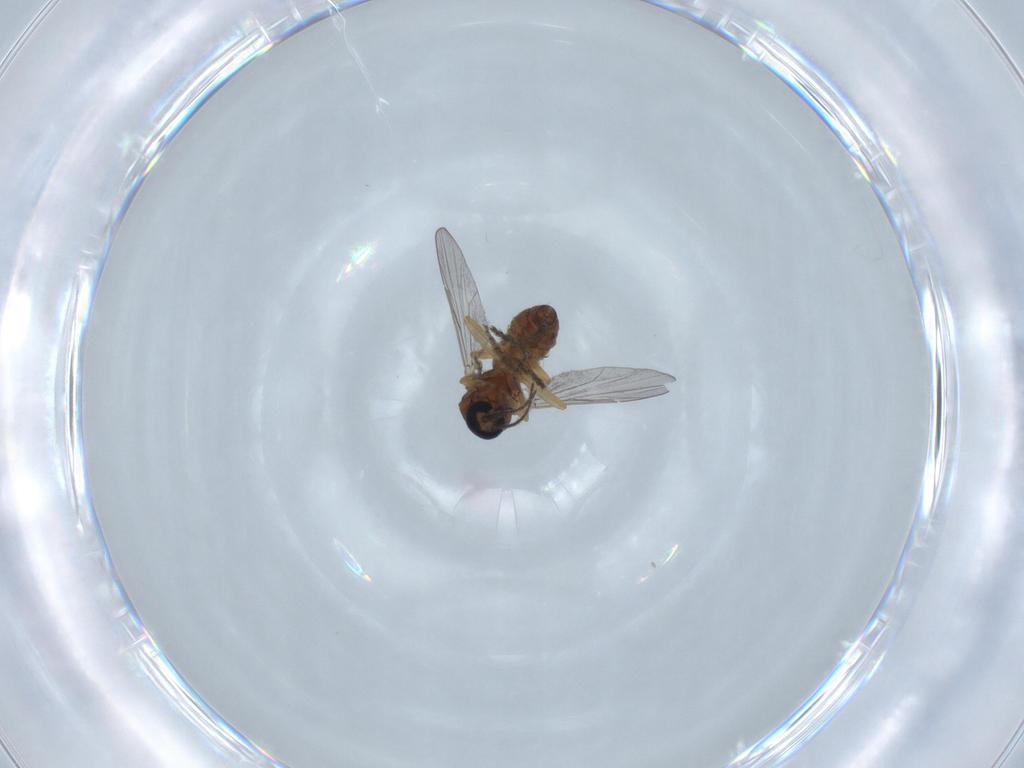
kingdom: Animalia
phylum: Arthropoda
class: Insecta
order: Diptera
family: Ceratopogonidae
